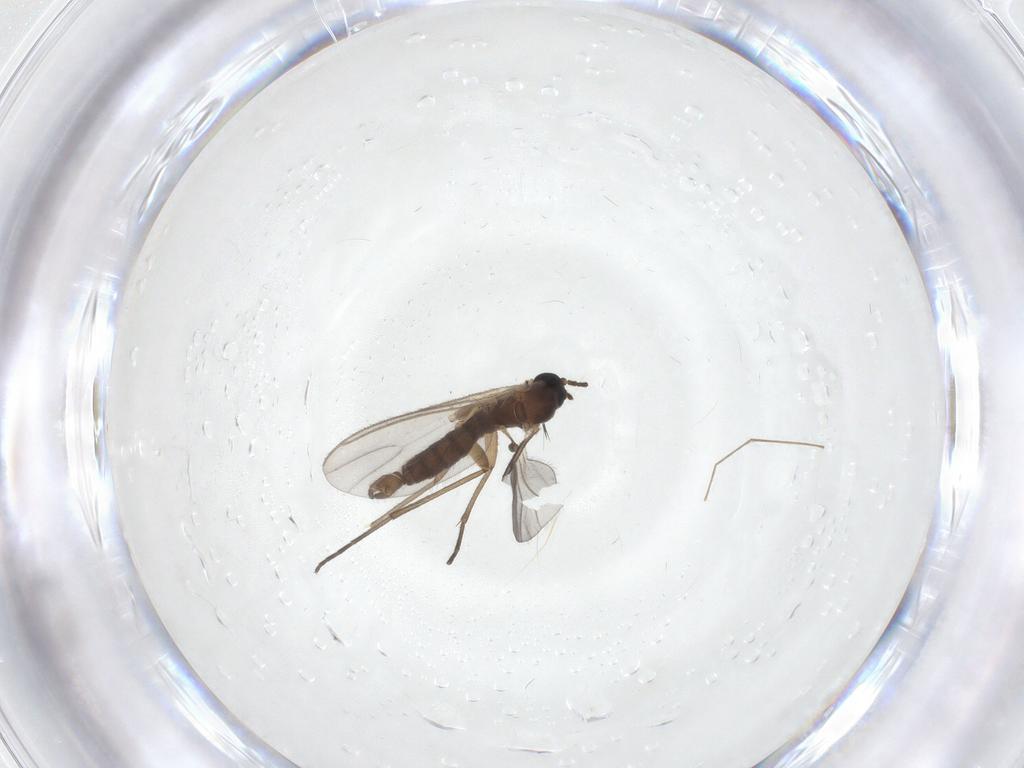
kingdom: Animalia
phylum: Arthropoda
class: Insecta
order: Diptera
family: Sciaridae
